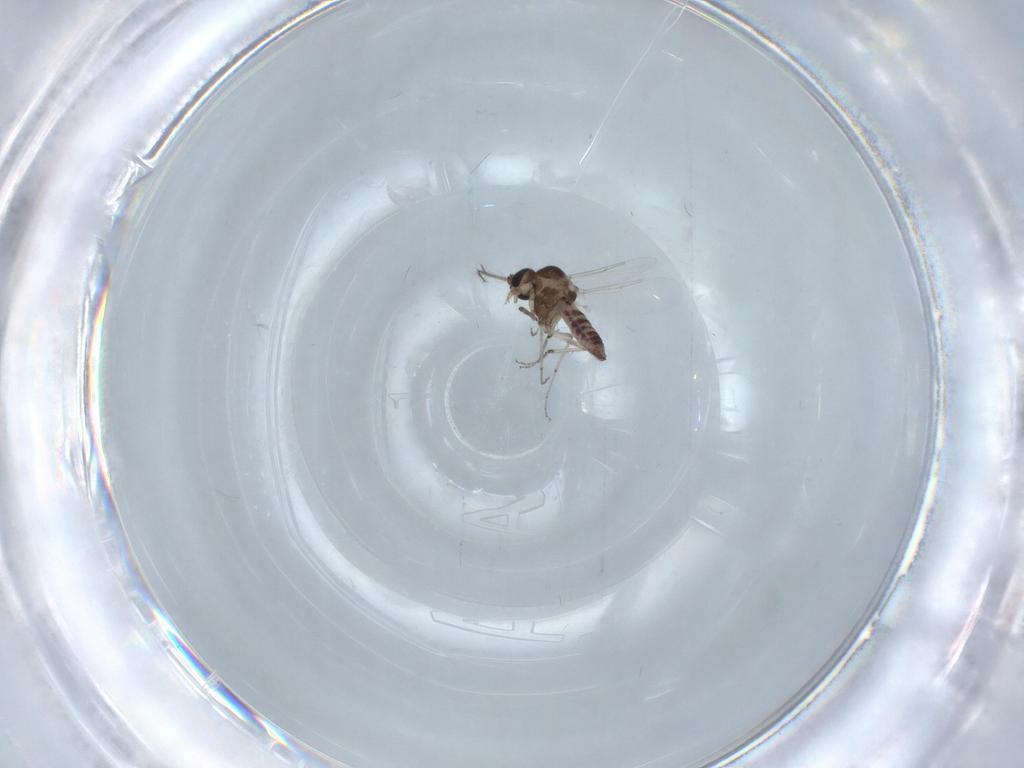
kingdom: Animalia
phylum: Arthropoda
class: Insecta
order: Diptera
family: Ceratopogonidae
